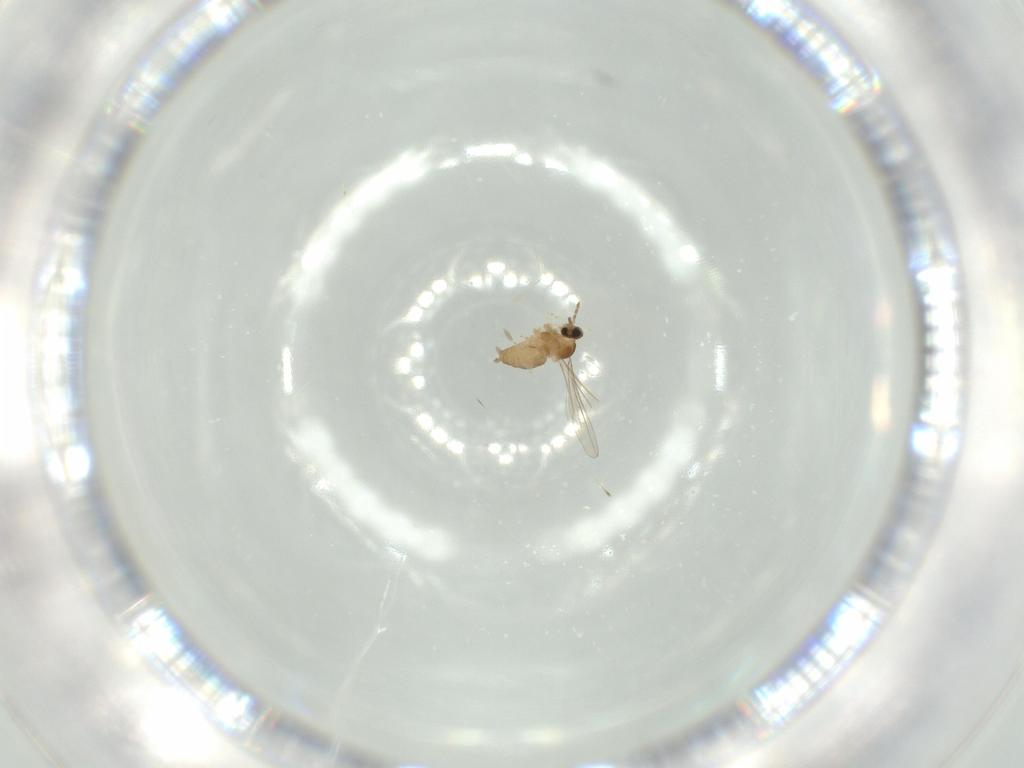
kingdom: Animalia
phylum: Arthropoda
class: Insecta
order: Diptera
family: Cecidomyiidae
